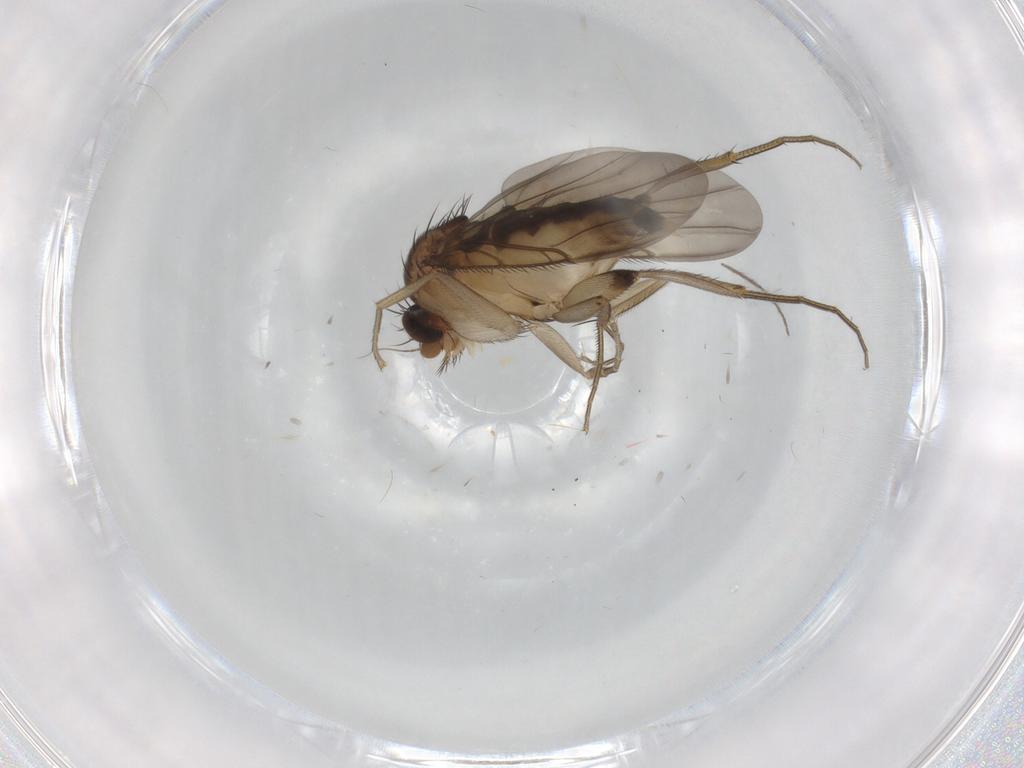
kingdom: Animalia
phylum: Arthropoda
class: Insecta
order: Diptera
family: Phoridae
